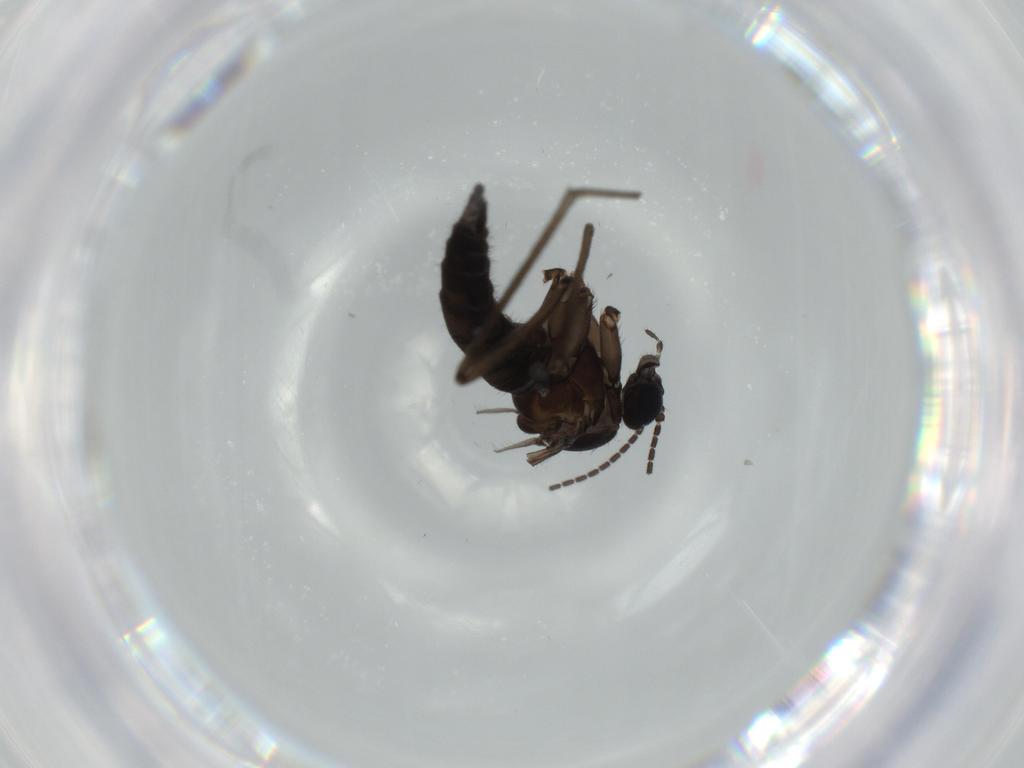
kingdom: Animalia
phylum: Arthropoda
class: Insecta
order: Diptera
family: Sciaridae
